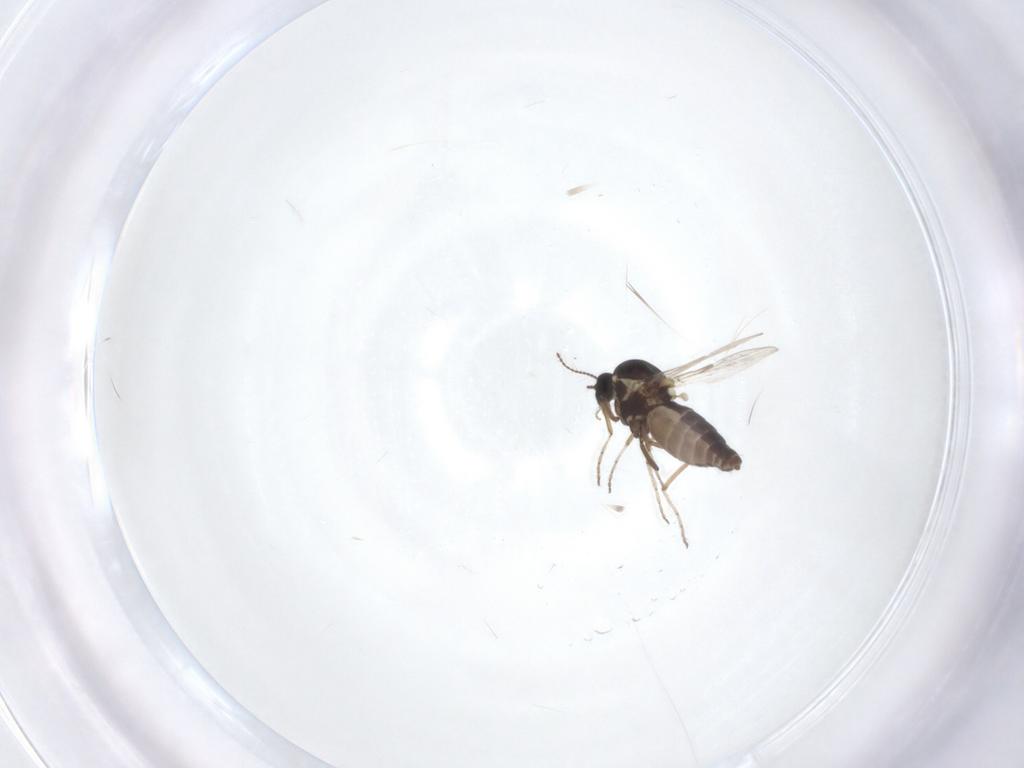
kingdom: Animalia
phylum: Arthropoda
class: Insecta
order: Diptera
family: Ceratopogonidae
